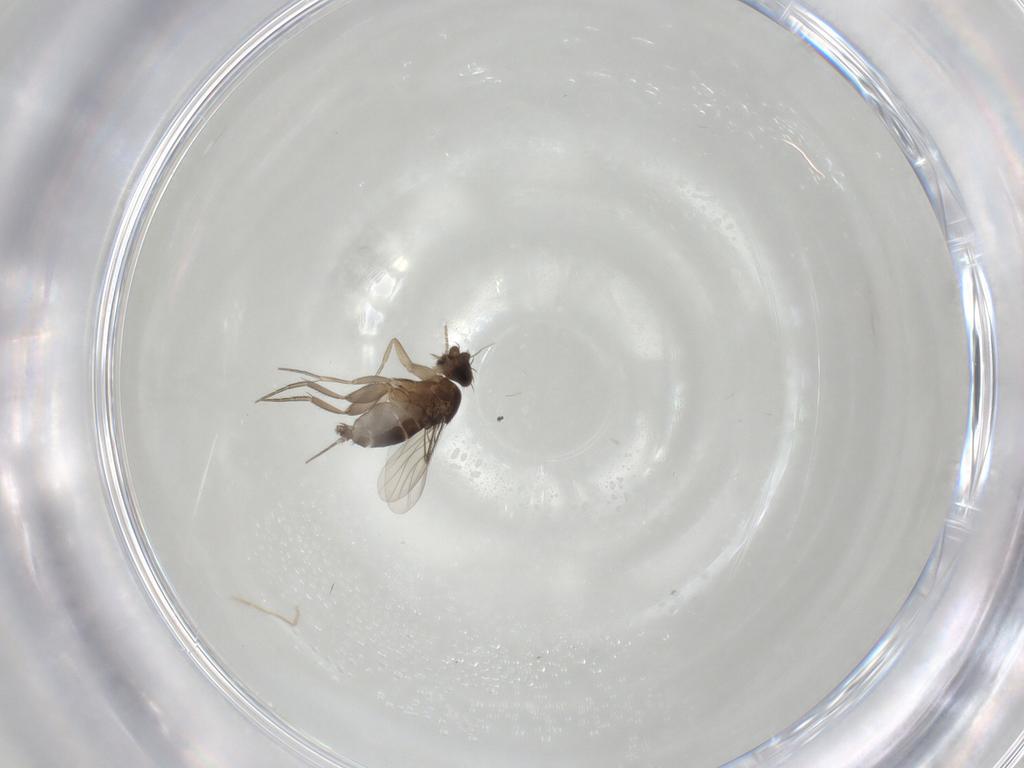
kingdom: Animalia
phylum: Arthropoda
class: Insecta
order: Diptera
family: Phoridae
